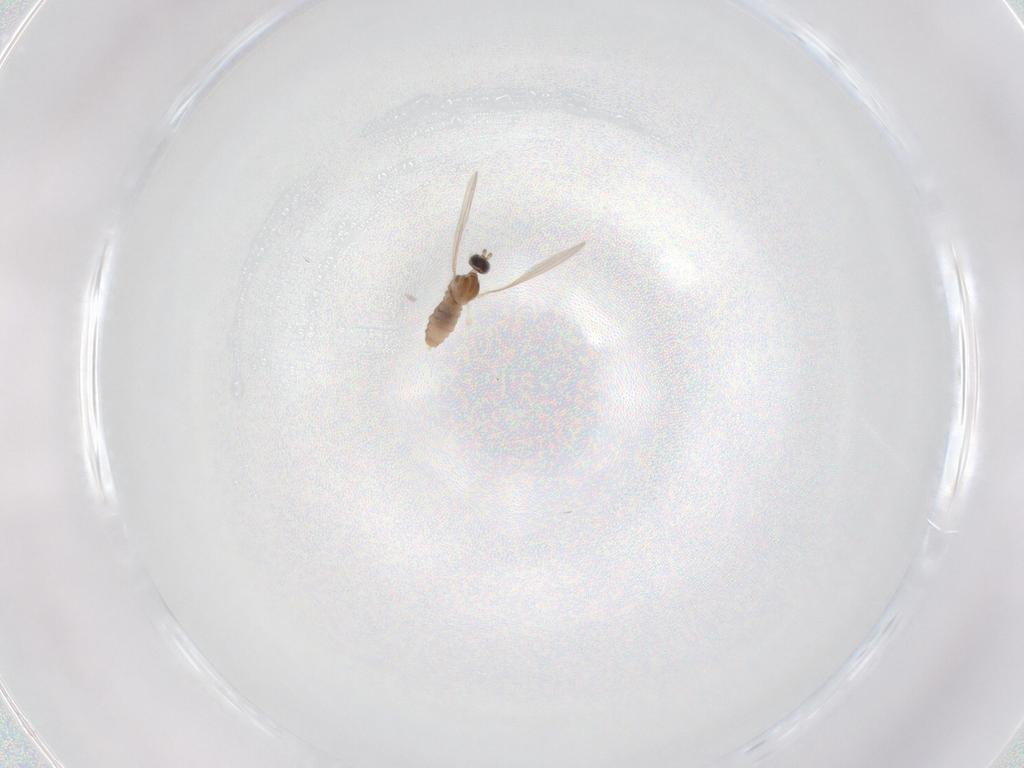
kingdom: Animalia
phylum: Arthropoda
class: Insecta
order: Diptera
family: Cecidomyiidae
